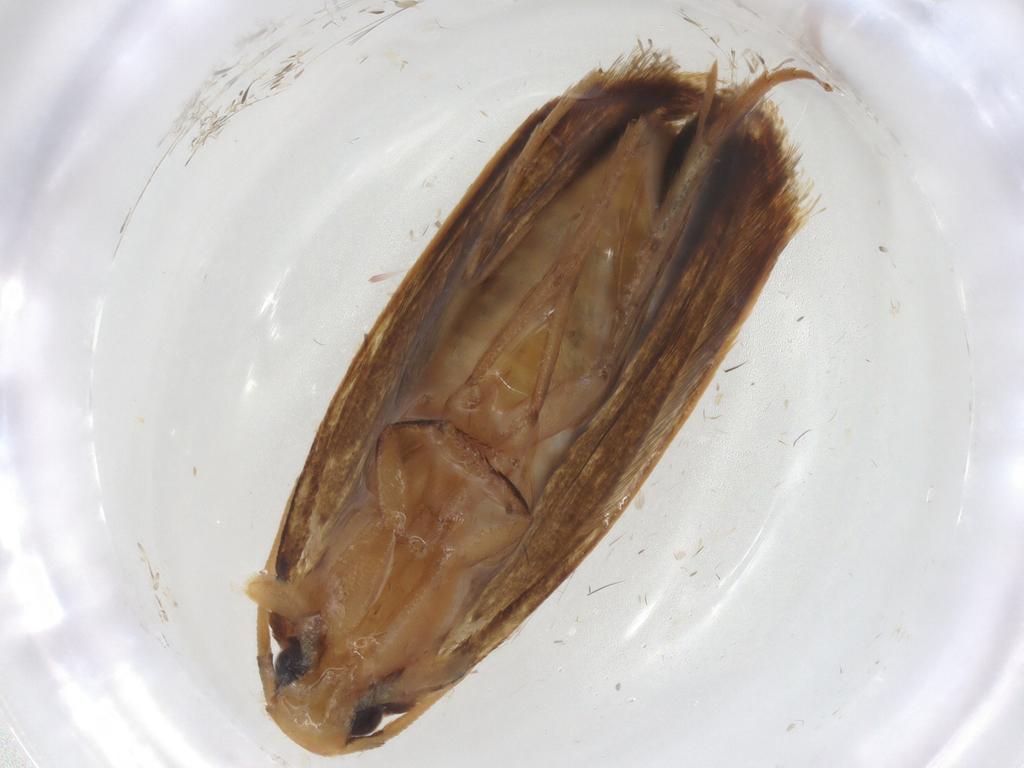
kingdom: Animalia
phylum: Arthropoda
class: Insecta
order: Lepidoptera
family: Tineidae
